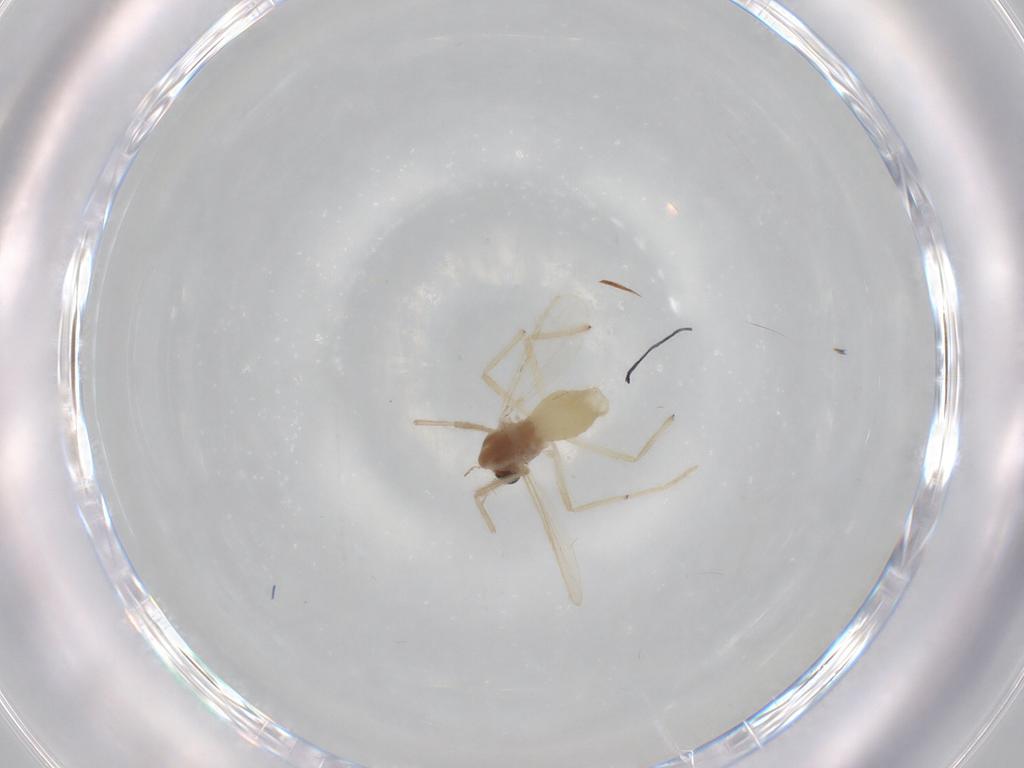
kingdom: Animalia
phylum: Arthropoda
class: Insecta
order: Diptera
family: Chironomidae
